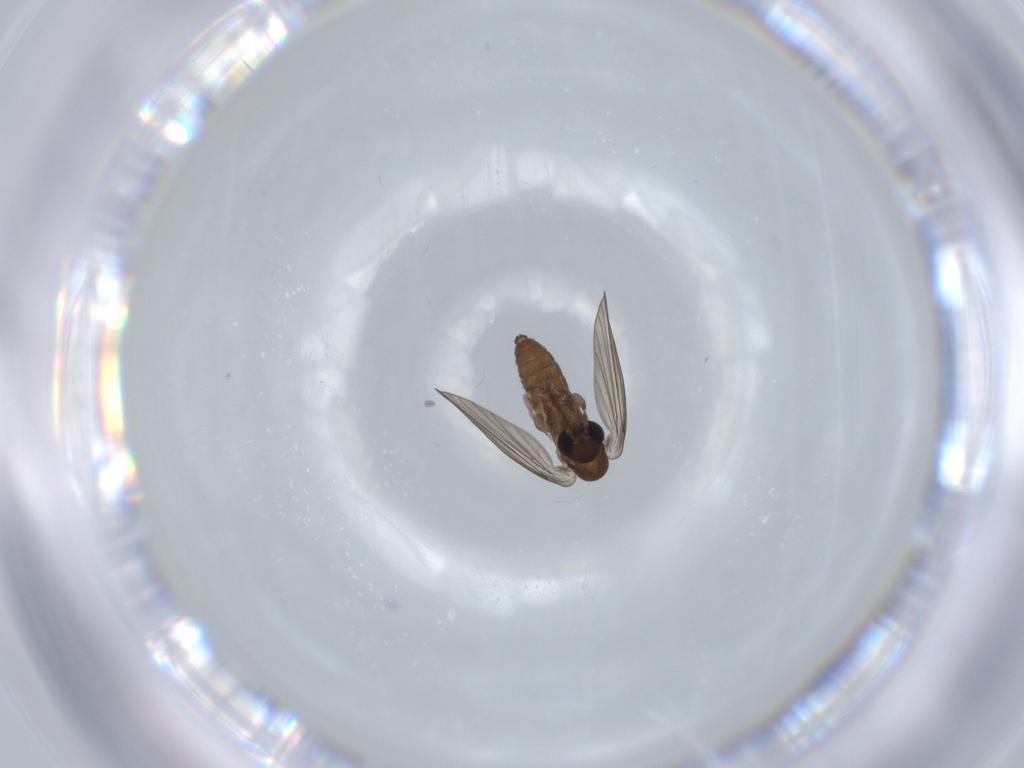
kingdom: Animalia
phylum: Arthropoda
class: Insecta
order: Diptera
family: Psychodidae
